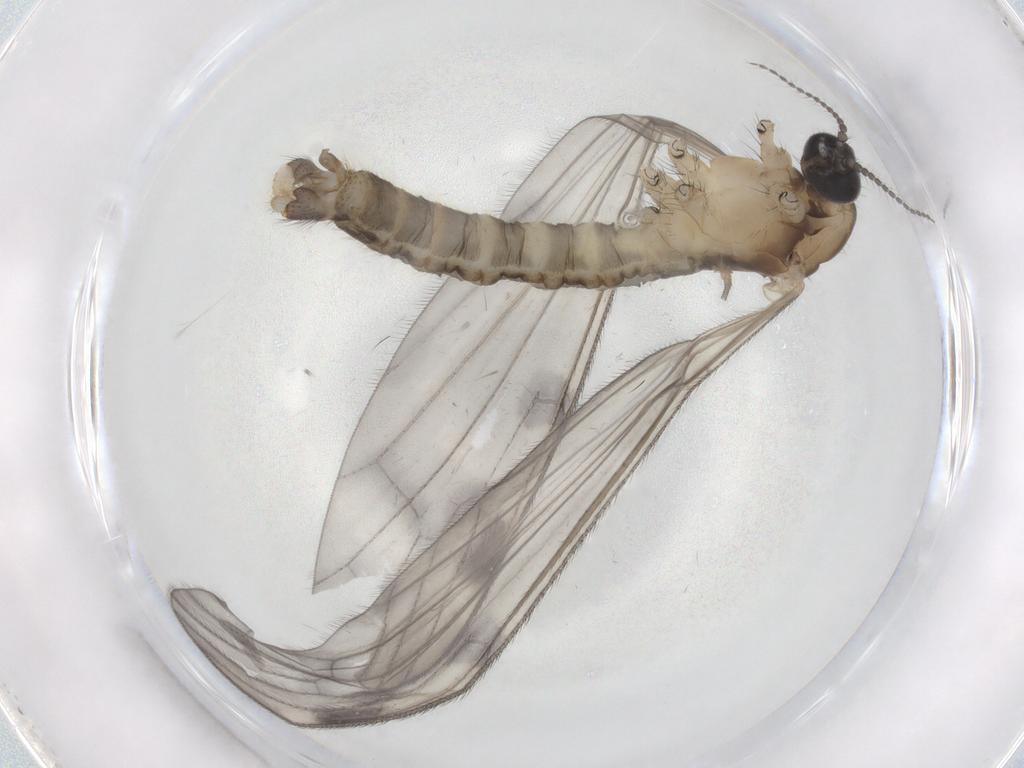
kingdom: Animalia
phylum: Arthropoda
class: Insecta
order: Diptera
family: Limoniidae
